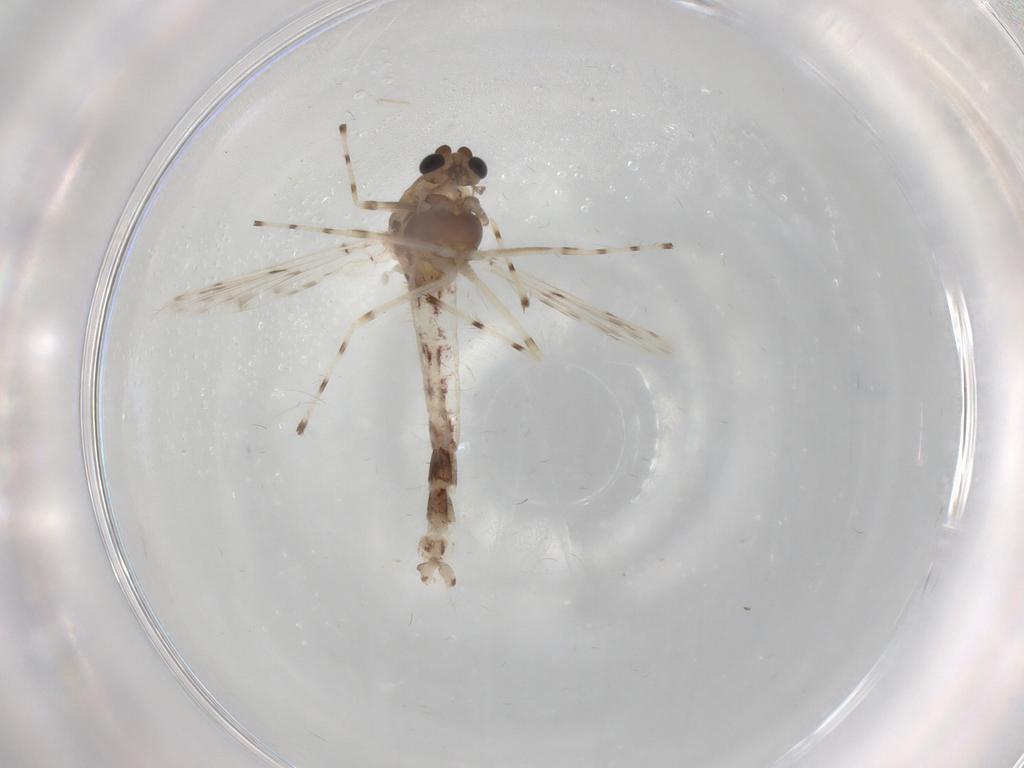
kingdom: Animalia
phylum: Arthropoda
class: Insecta
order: Diptera
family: Chironomidae
